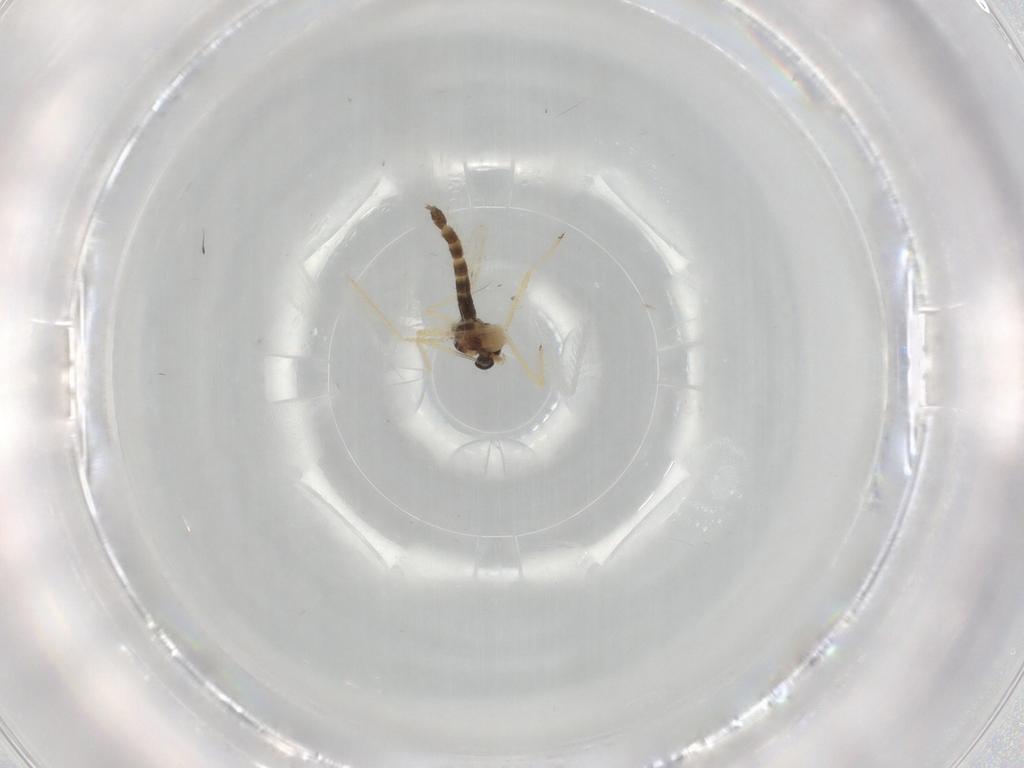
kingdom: Animalia
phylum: Arthropoda
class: Insecta
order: Diptera
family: Chironomidae
